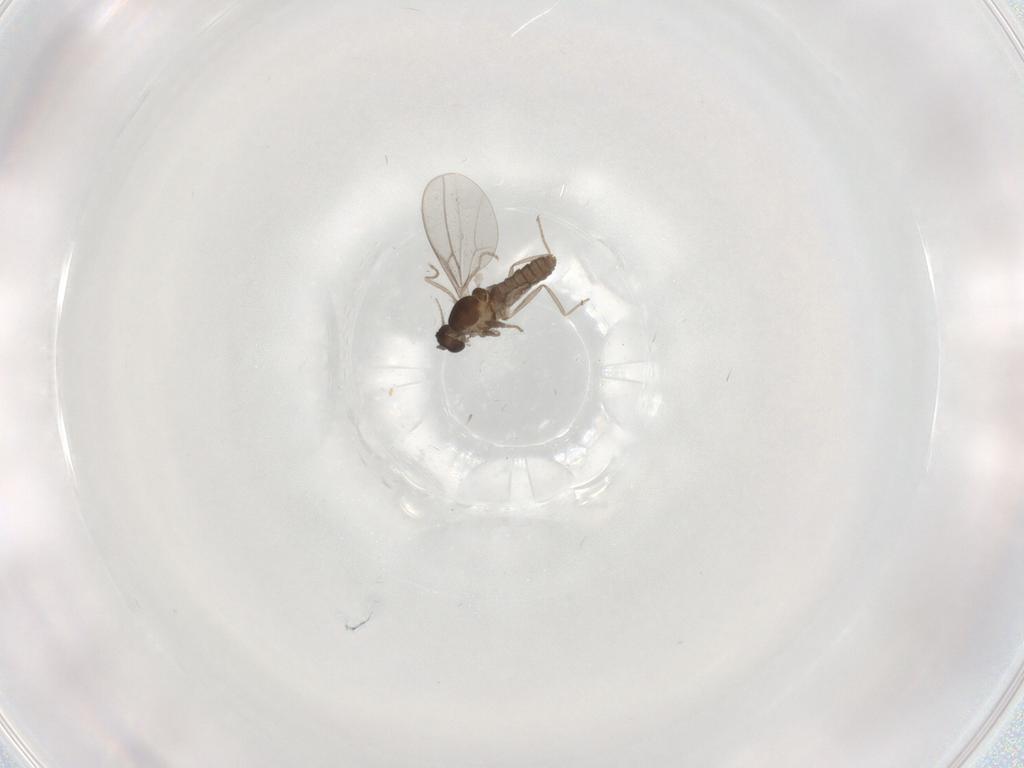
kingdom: Animalia
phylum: Arthropoda
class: Insecta
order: Diptera
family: Cecidomyiidae
